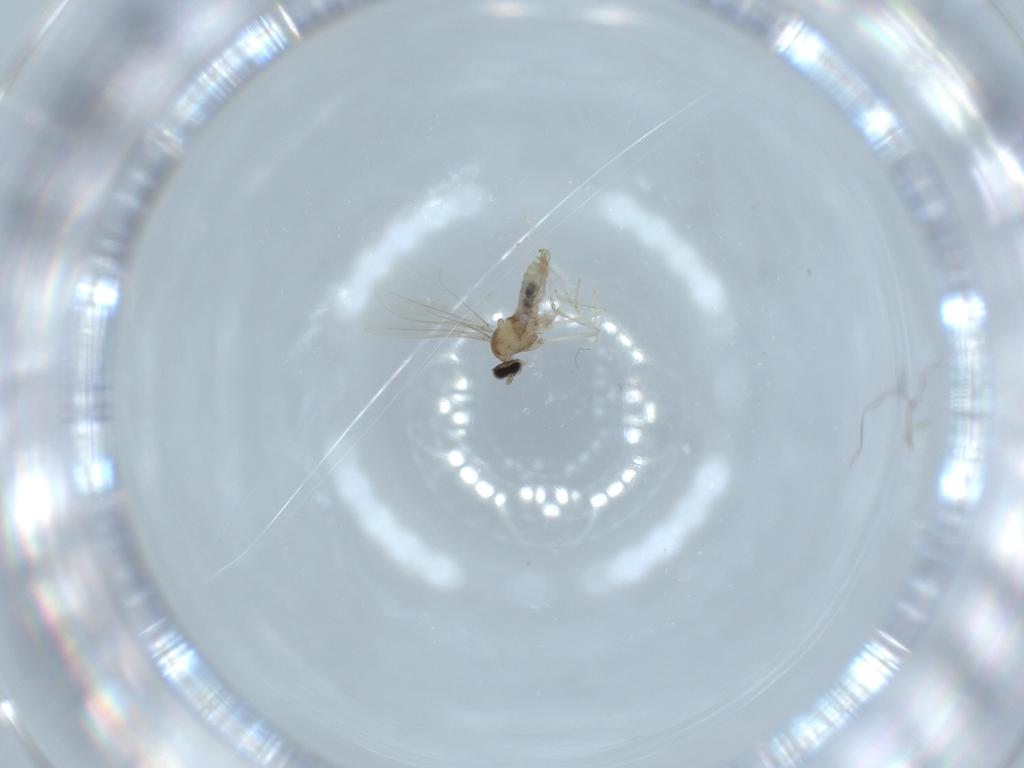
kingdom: Animalia
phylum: Arthropoda
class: Insecta
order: Diptera
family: Cecidomyiidae
